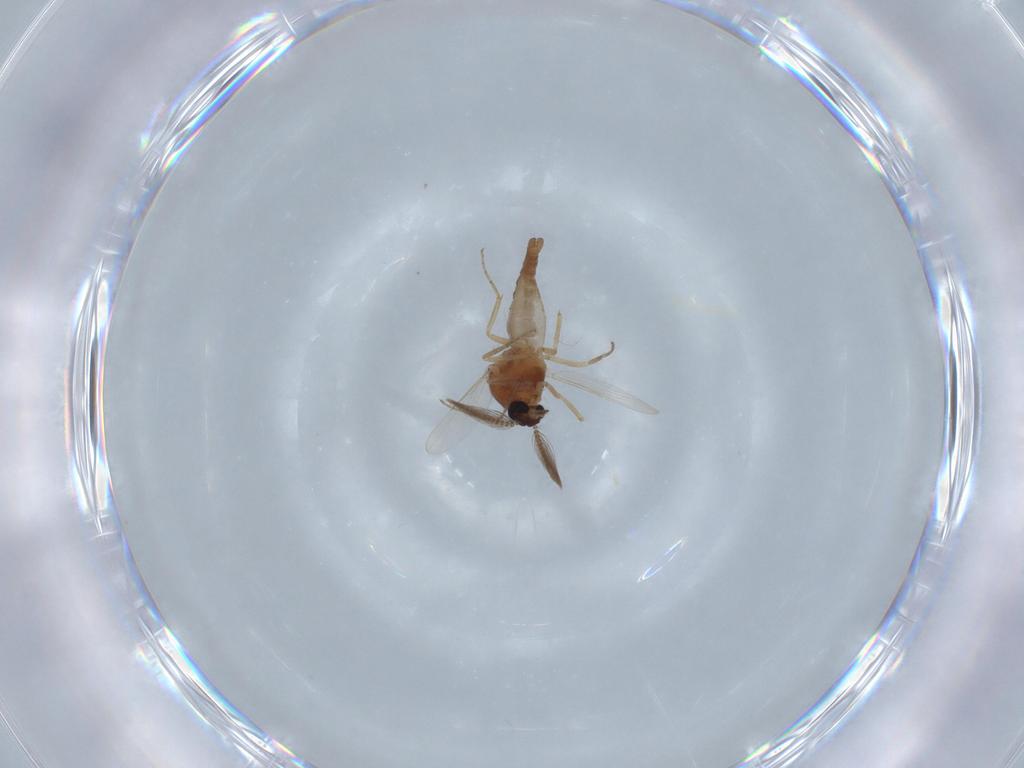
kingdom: Animalia
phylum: Arthropoda
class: Insecta
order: Diptera
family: Ceratopogonidae
